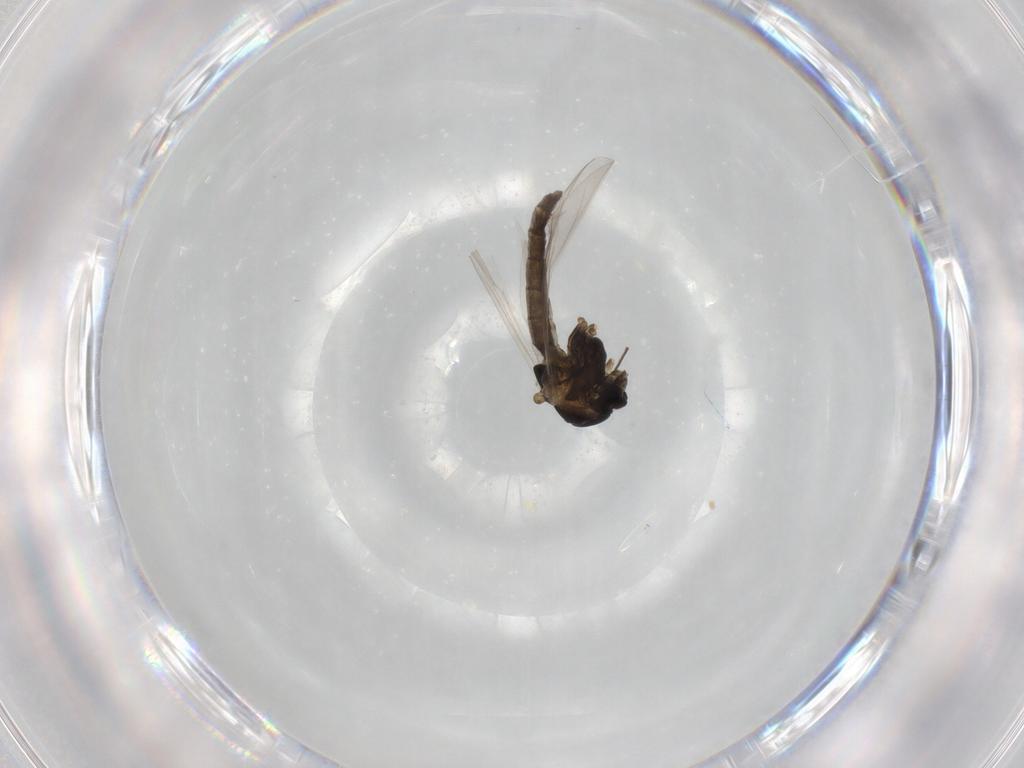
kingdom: Animalia
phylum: Arthropoda
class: Insecta
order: Diptera
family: Chironomidae
